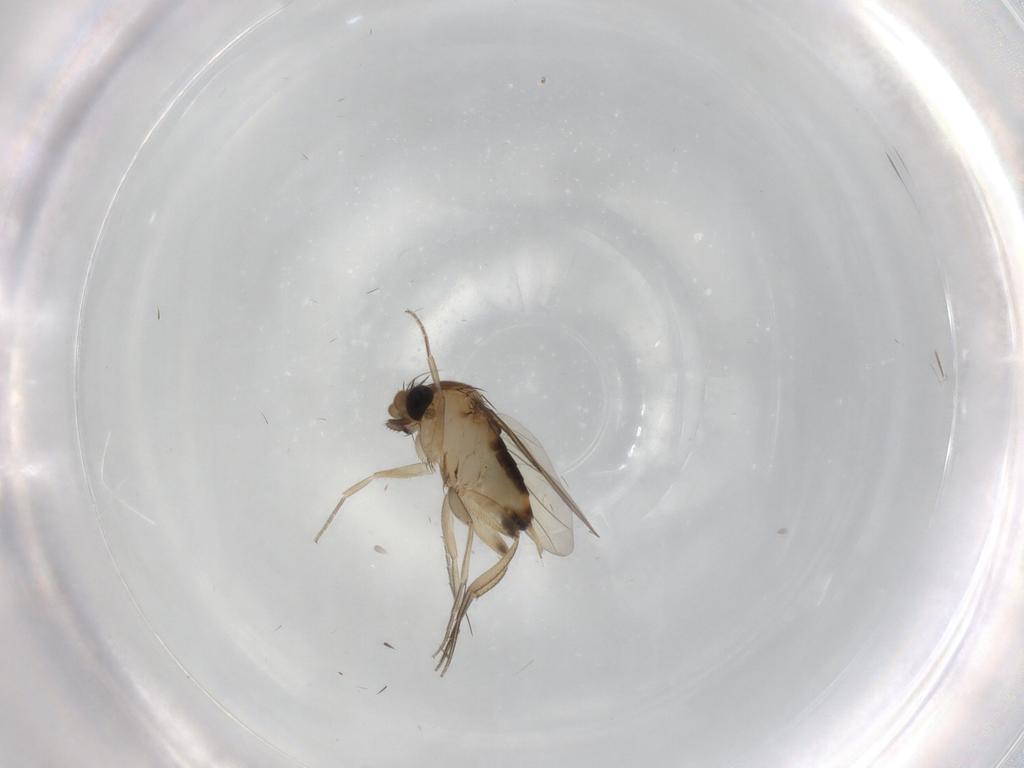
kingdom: Animalia
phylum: Arthropoda
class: Insecta
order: Diptera
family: Phoridae
